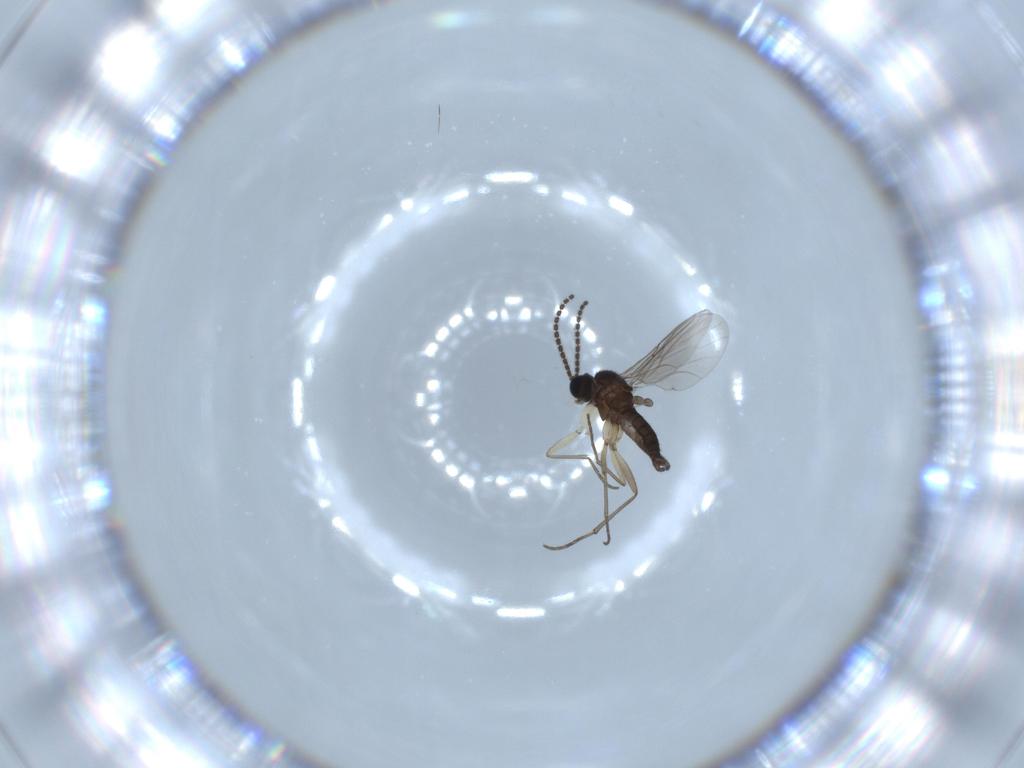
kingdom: Animalia
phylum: Arthropoda
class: Insecta
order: Diptera
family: Sciaridae
